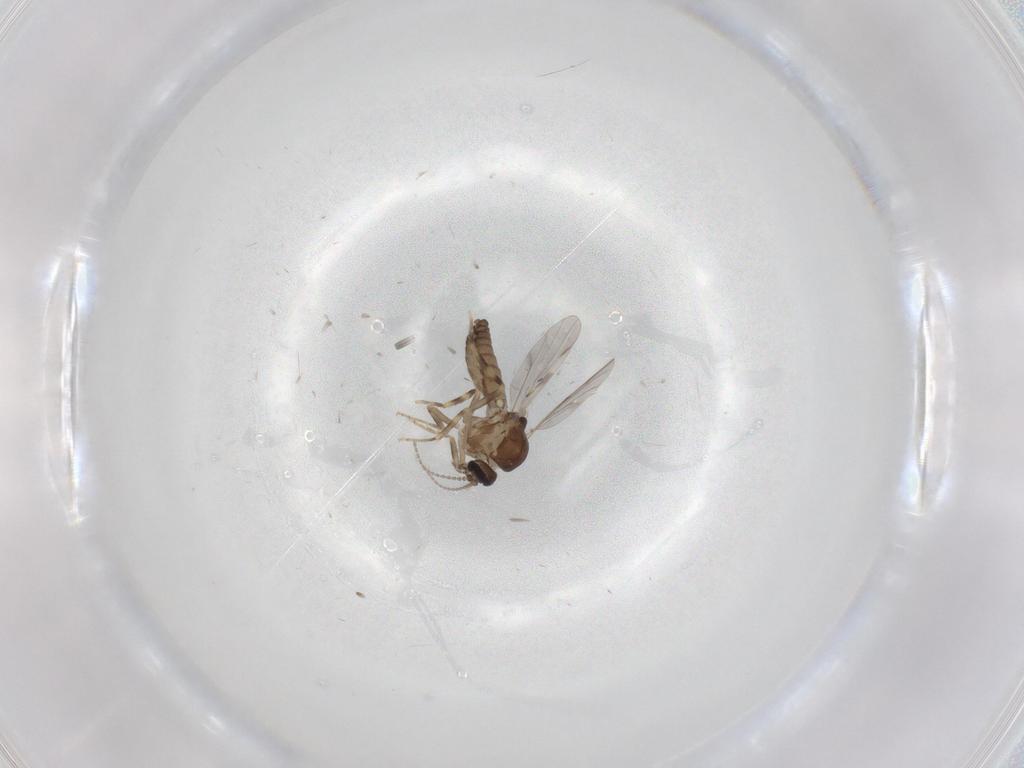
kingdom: Animalia
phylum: Arthropoda
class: Insecta
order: Diptera
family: Ceratopogonidae
